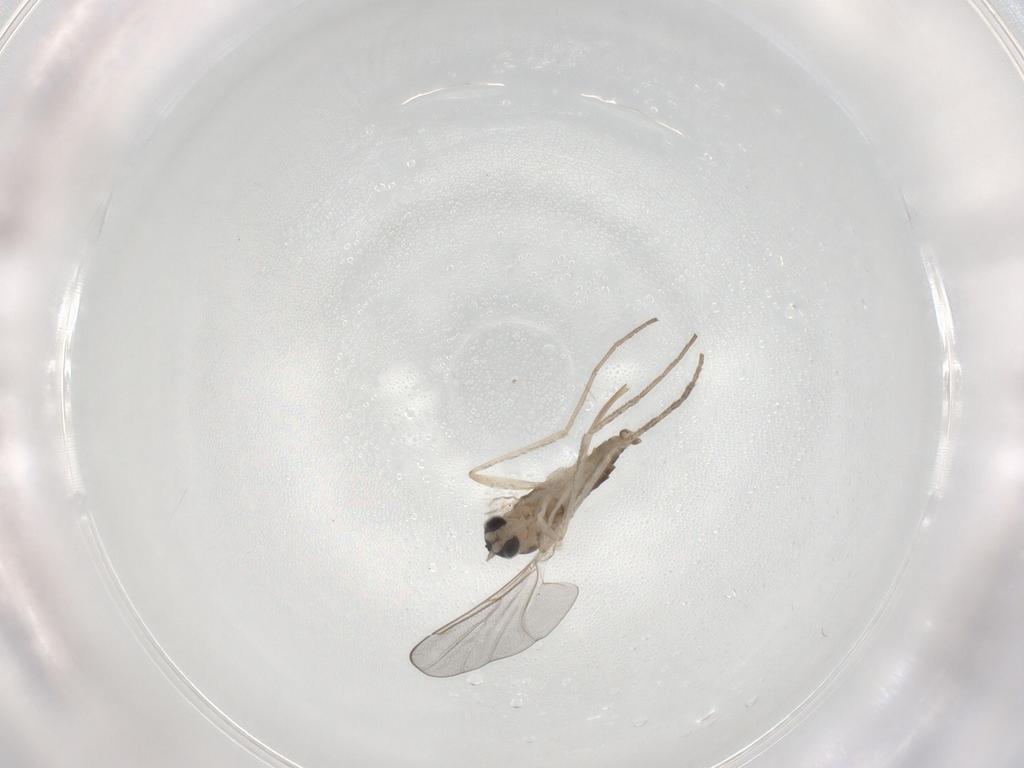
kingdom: Animalia
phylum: Arthropoda
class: Insecta
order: Diptera
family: Cecidomyiidae
